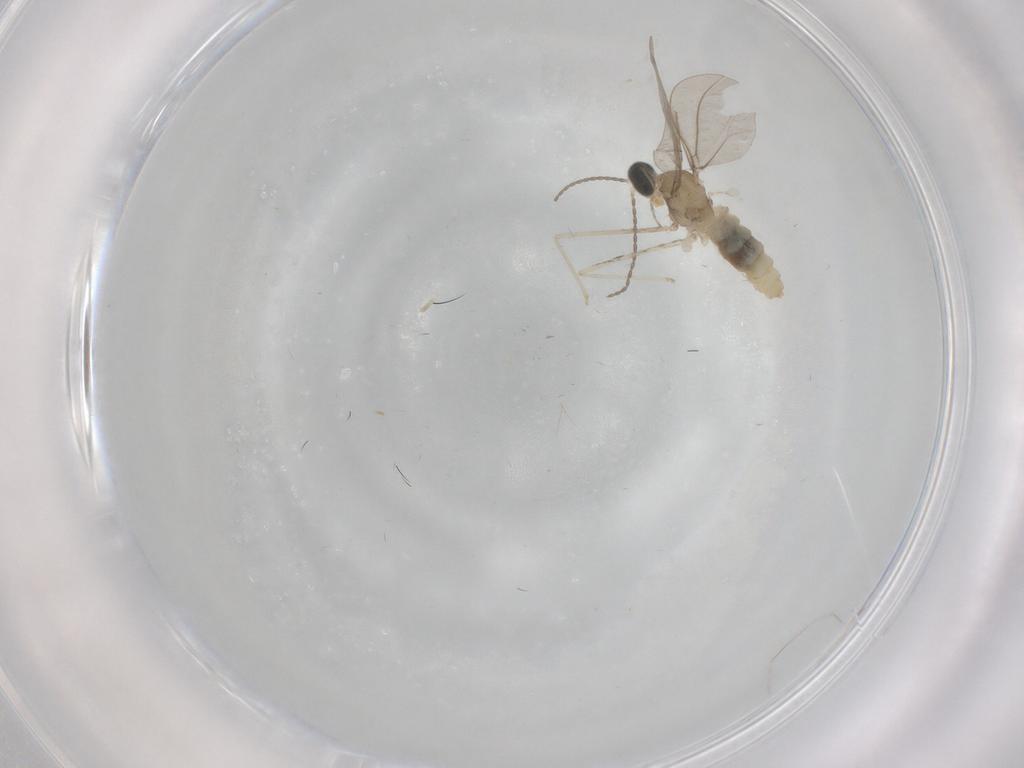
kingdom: Animalia
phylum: Arthropoda
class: Insecta
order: Diptera
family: Phoridae
